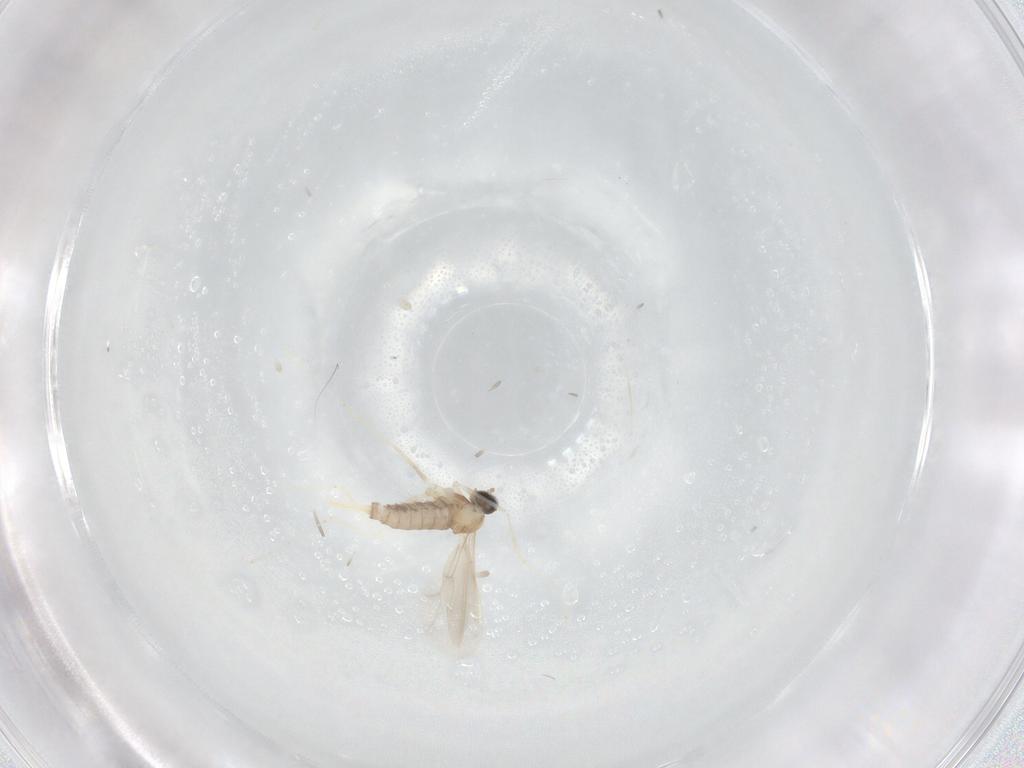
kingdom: Animalia
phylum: Arthropoda
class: Insecta
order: Diptera
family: Cecidomyiidae
